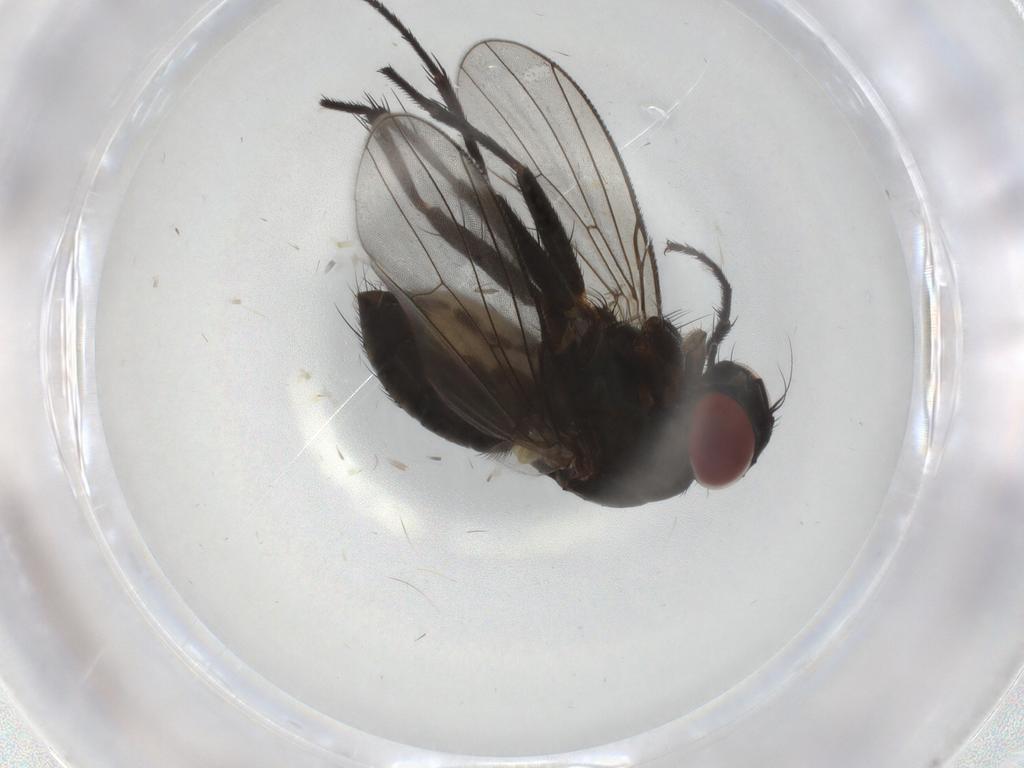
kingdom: Animalia
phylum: Arthropoda
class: Insecta
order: Diptera
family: Muscidae
